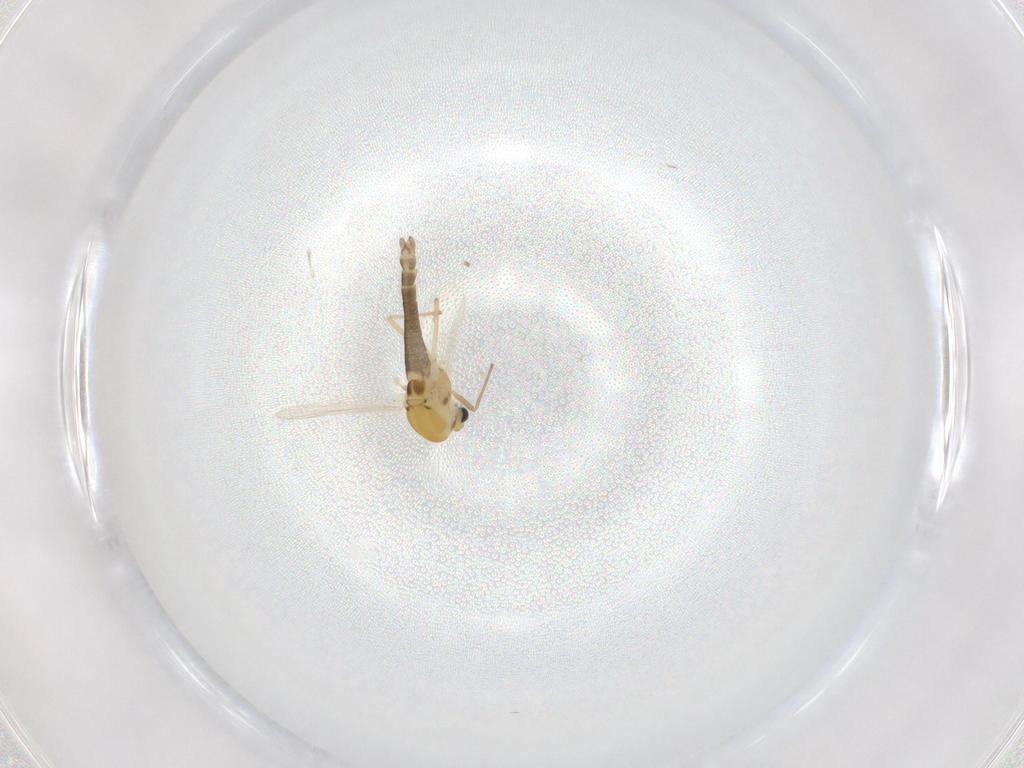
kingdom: Animalia
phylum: Arthropoda
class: Insecta
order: Diptera
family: Chironomidae
